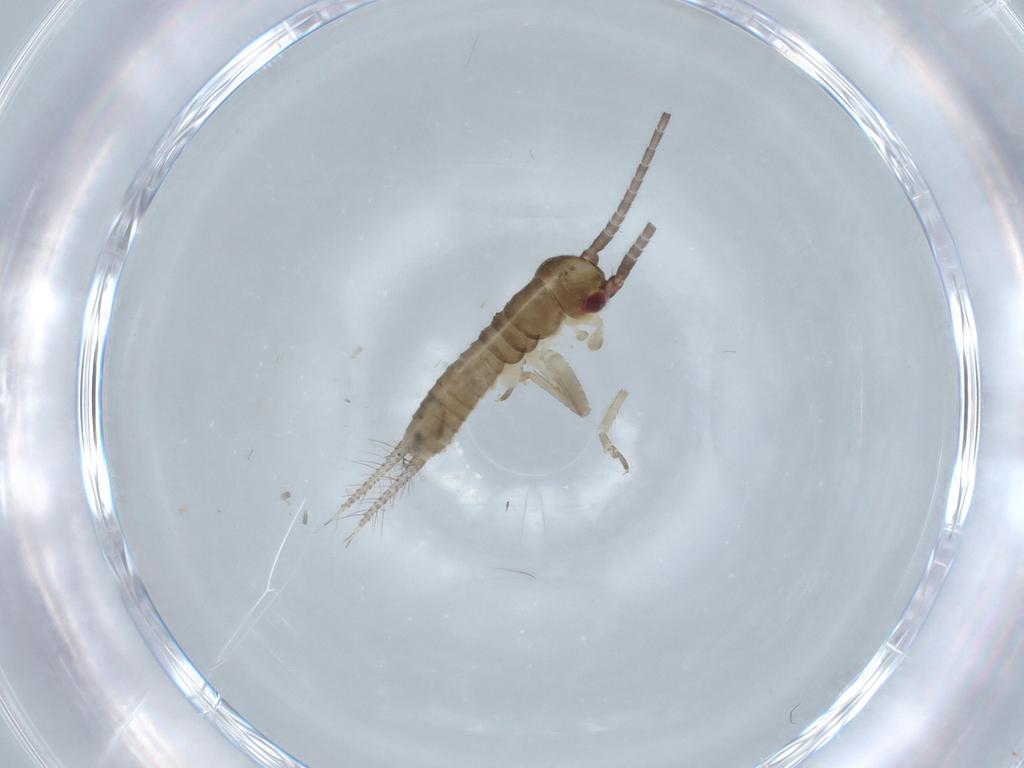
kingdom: Animalia
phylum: Arthropoda
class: Insecta
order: Orthoptera
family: Gryllidae
